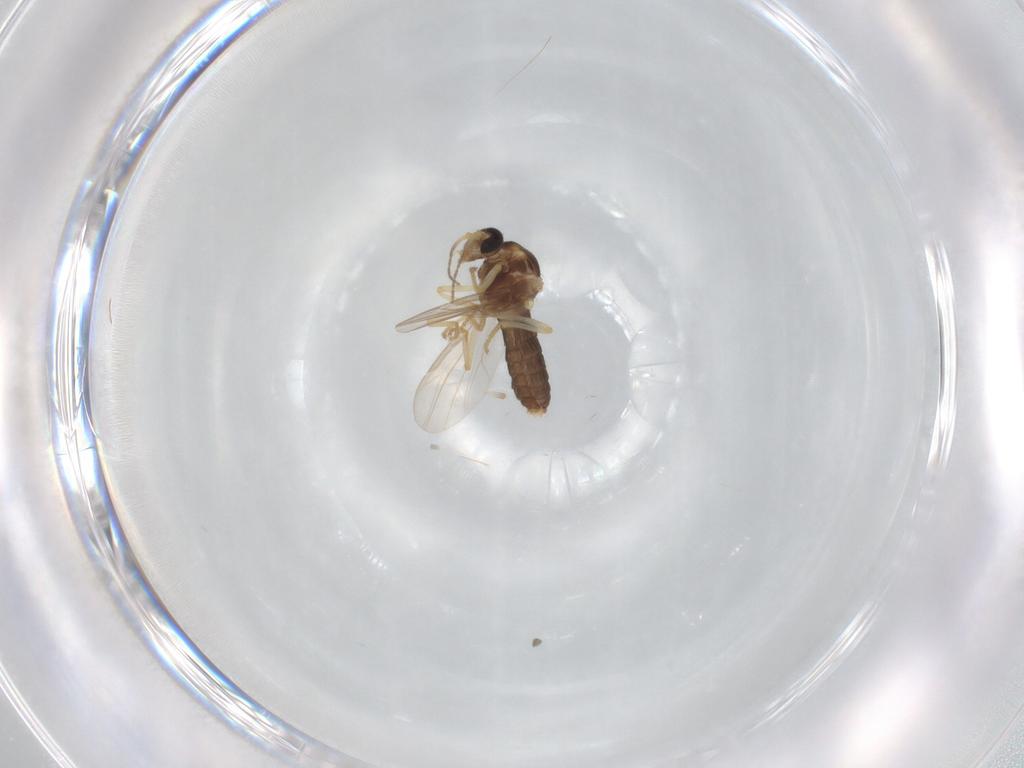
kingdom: Animalia
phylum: Arthropoda
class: Insecta
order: Diptera
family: Ceratopogonidae
